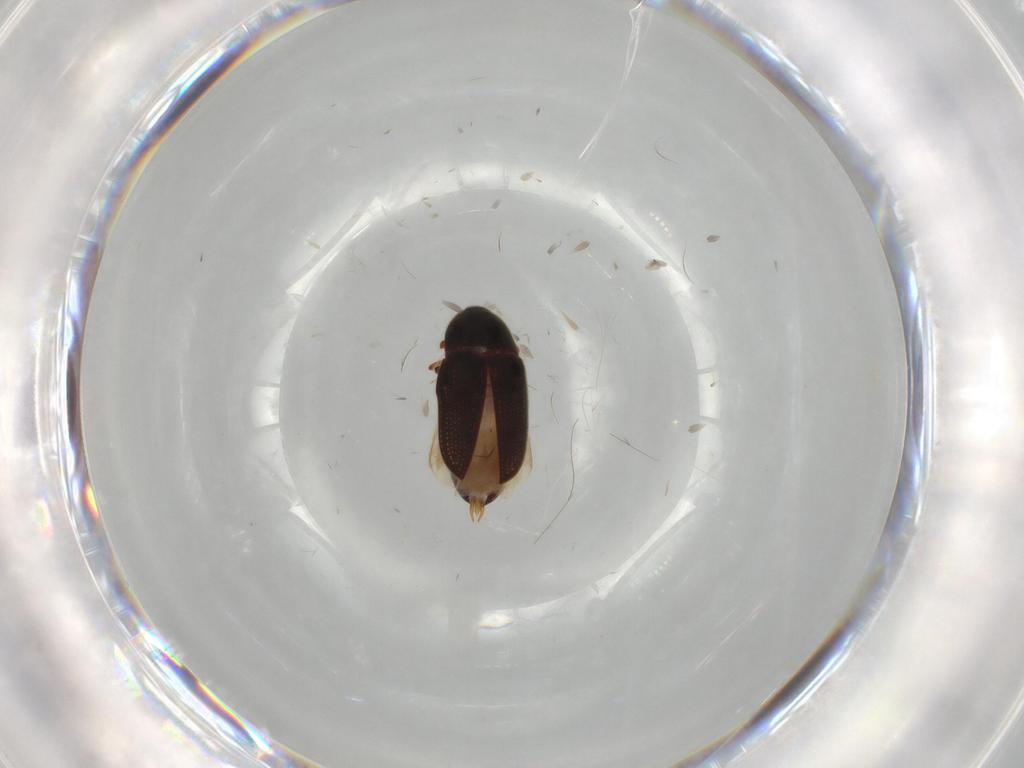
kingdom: Animalia
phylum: Arthropoda
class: Insecta
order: Coleoptera
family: Throscidae
